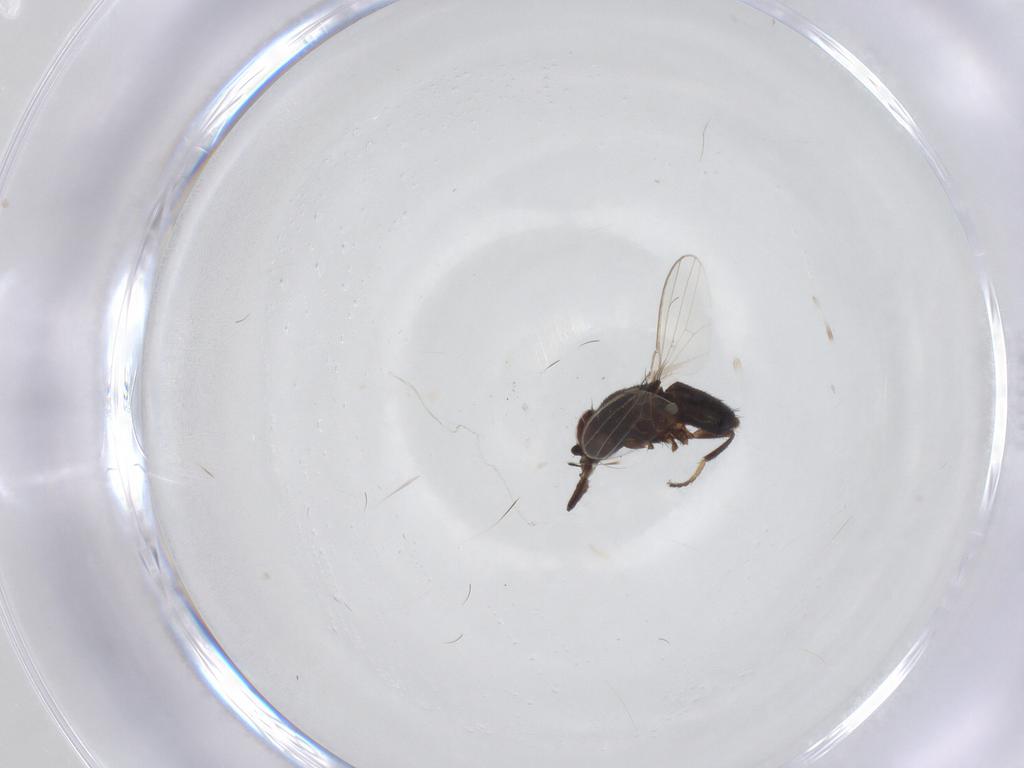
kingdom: Animalia
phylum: Arthropoda
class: Insecta
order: Diptera
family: Milichiidae
